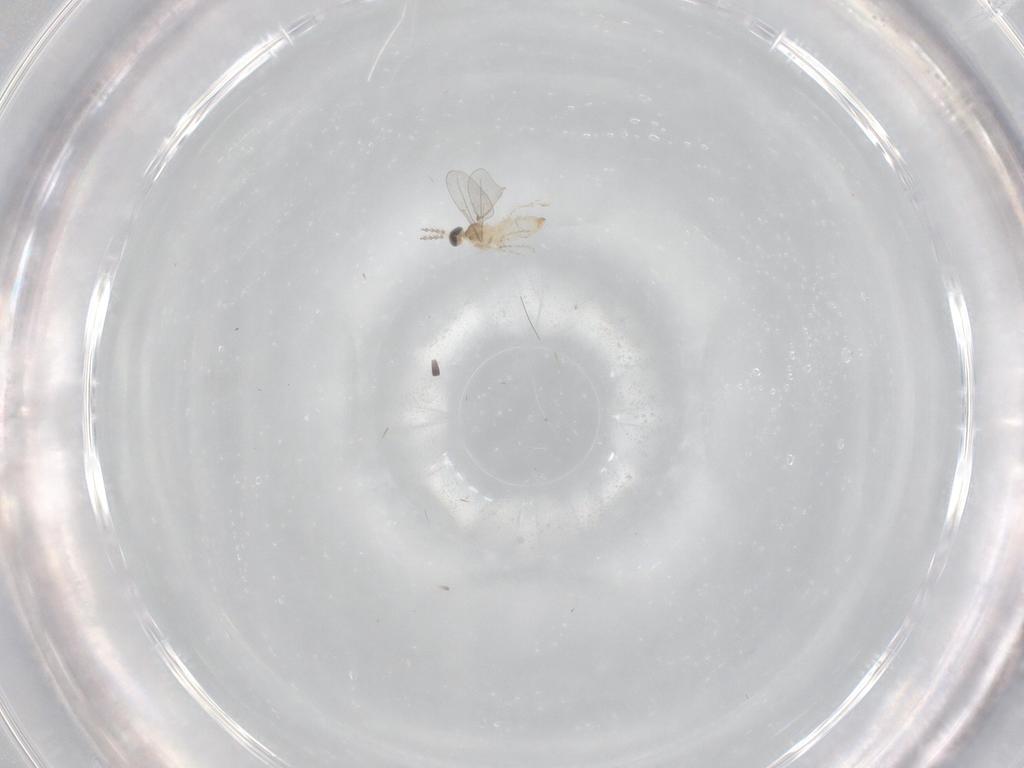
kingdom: Animalia
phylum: Arthropoda
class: Insecta
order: Diptera
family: Cecidomyiidae
